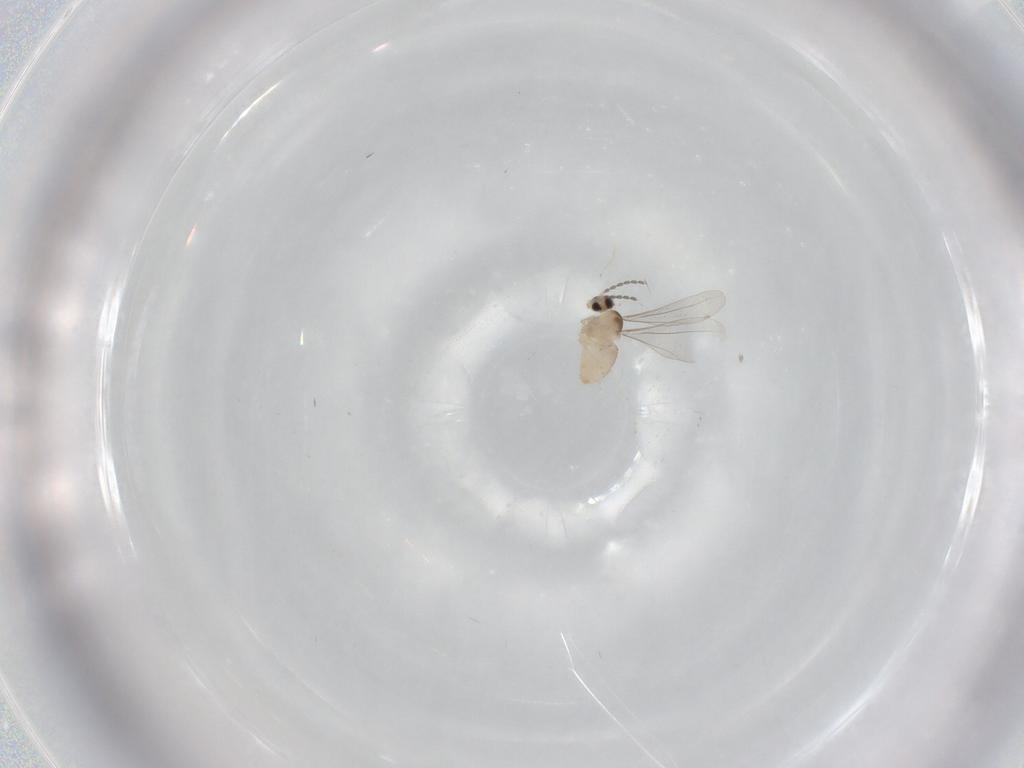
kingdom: Animalia
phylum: Arthropoda
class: Insecta
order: Diptera
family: Cecidomyiidae
